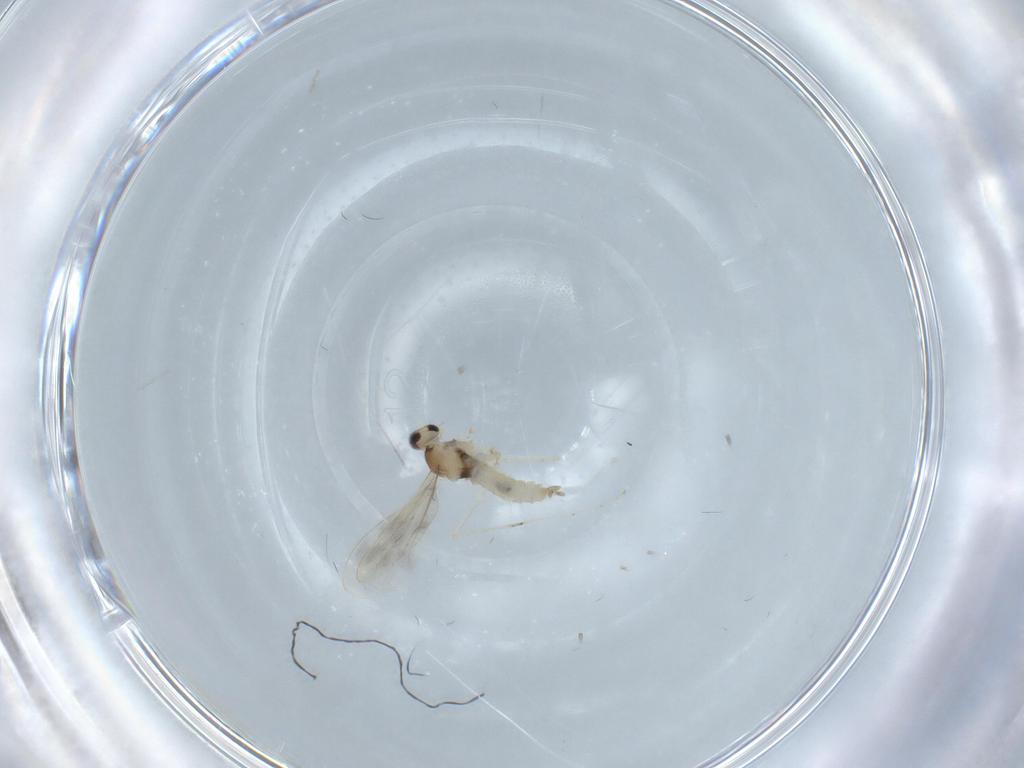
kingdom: Animalia
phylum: Arthropoda
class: Insecta
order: Diptera
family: Cecidomyiidae
